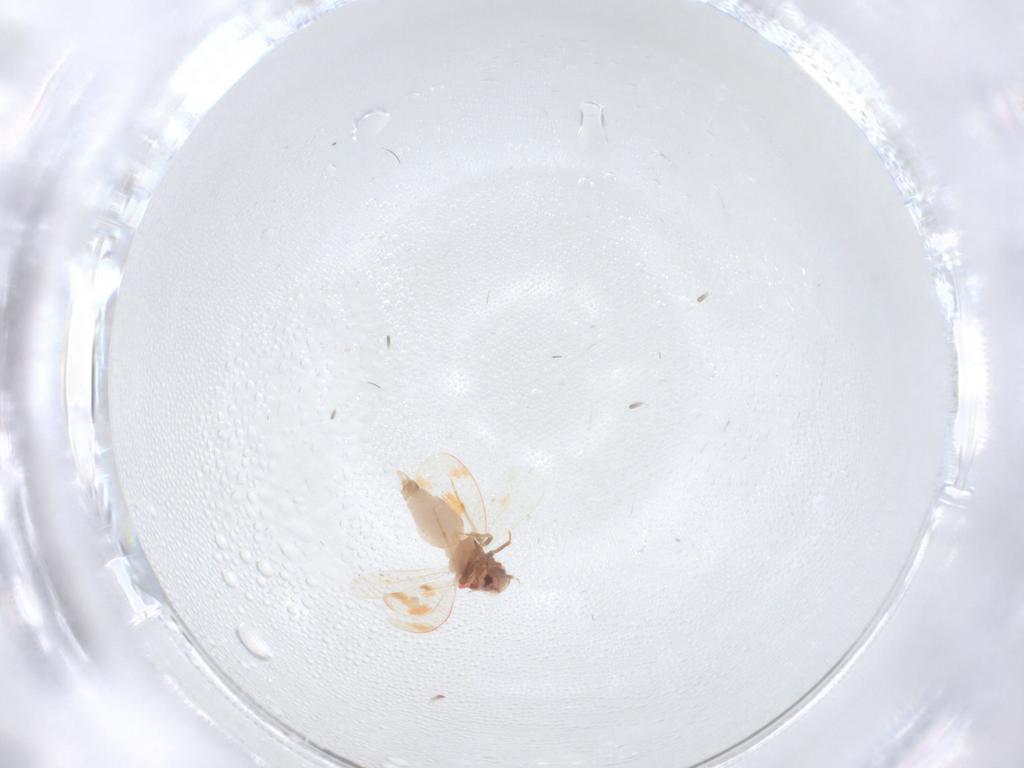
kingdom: Animalia
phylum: Arthropoda
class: Insecta
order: Hemiptera
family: Aleyrodidae
